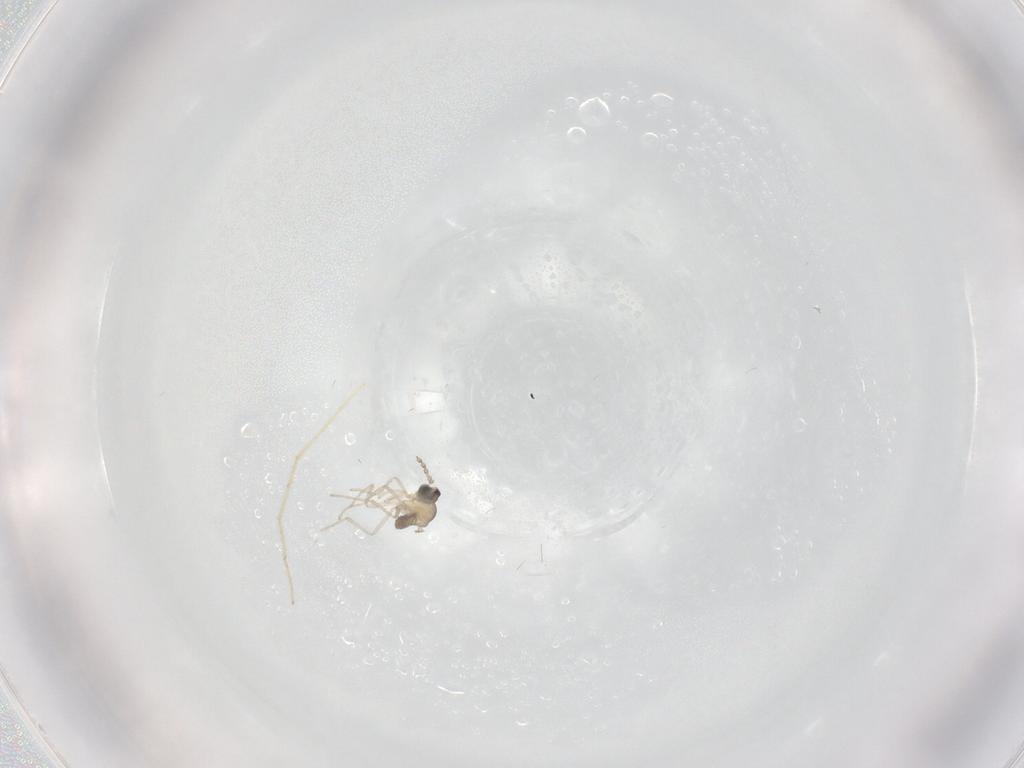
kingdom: Animalia
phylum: Arthropoda
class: Insecta
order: Diptera
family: Cecidomyiidae
